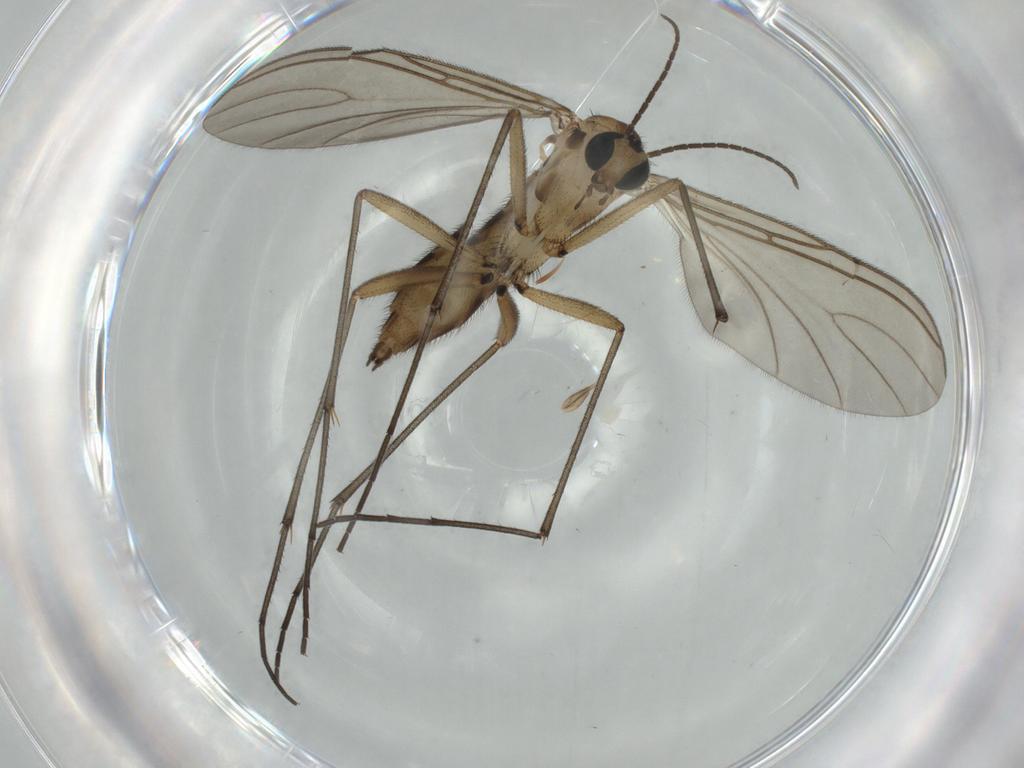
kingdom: Animalia
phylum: Arthropoda
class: Insecta
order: Diptera
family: Sciaridae
